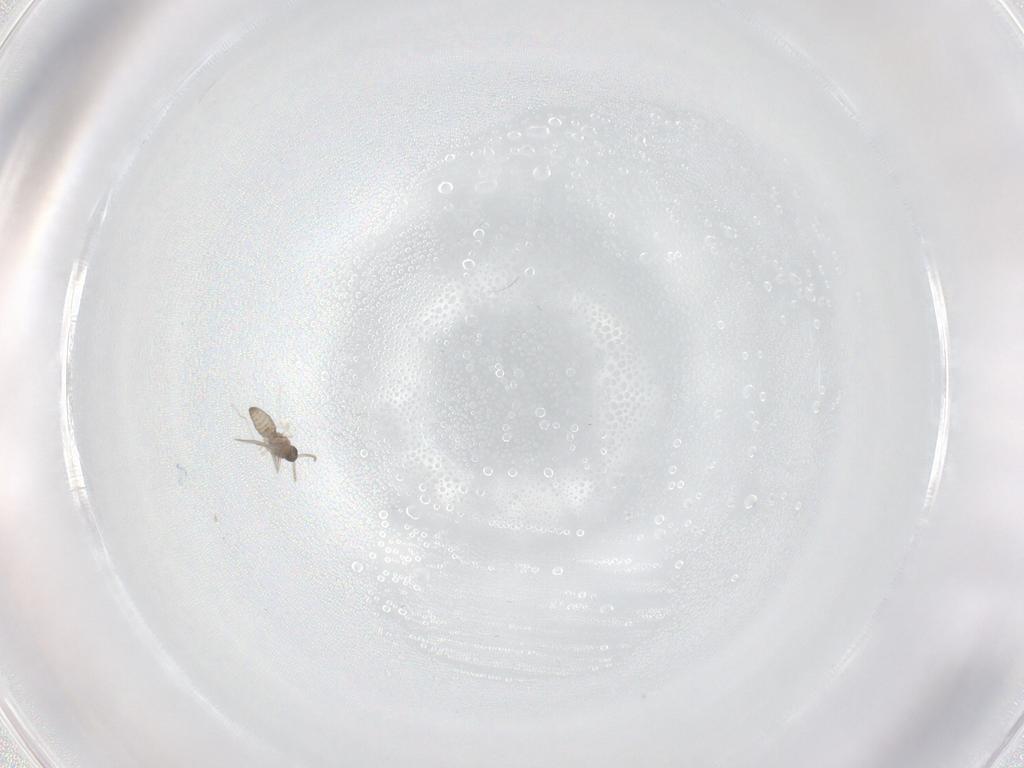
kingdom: Animalia
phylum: Arthropoda
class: Insecta
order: Diptera
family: Cecidomyiidae
